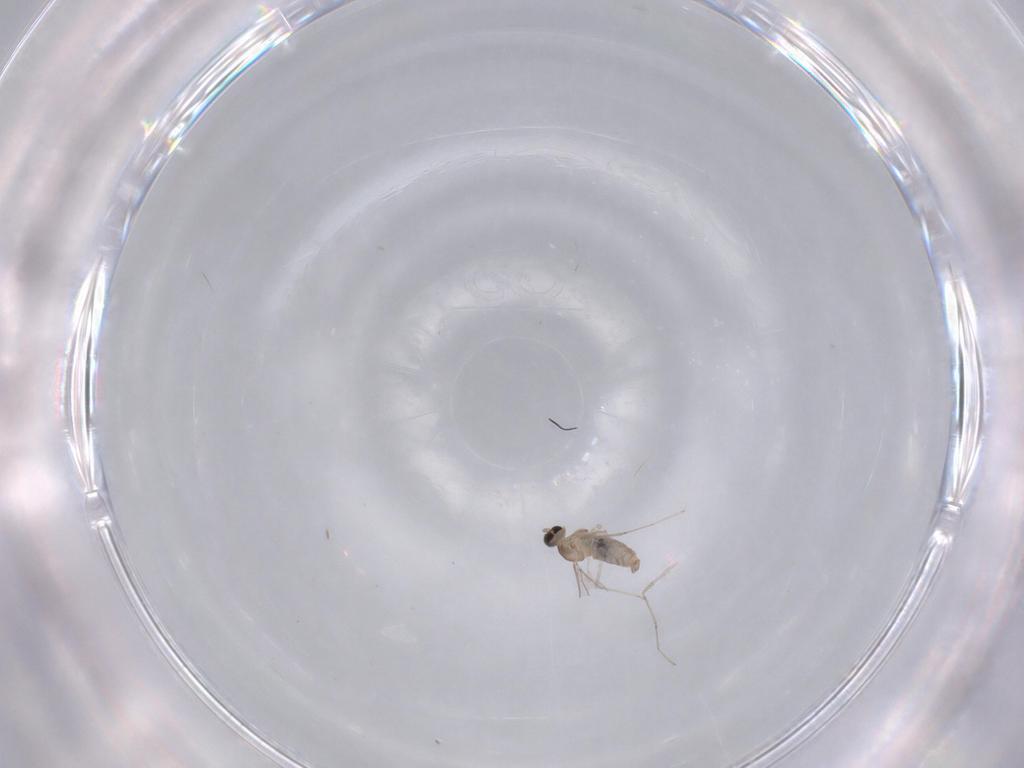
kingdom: Animalia
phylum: Arthropoda
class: Insecta
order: Diptera
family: Cecidomyiidae
